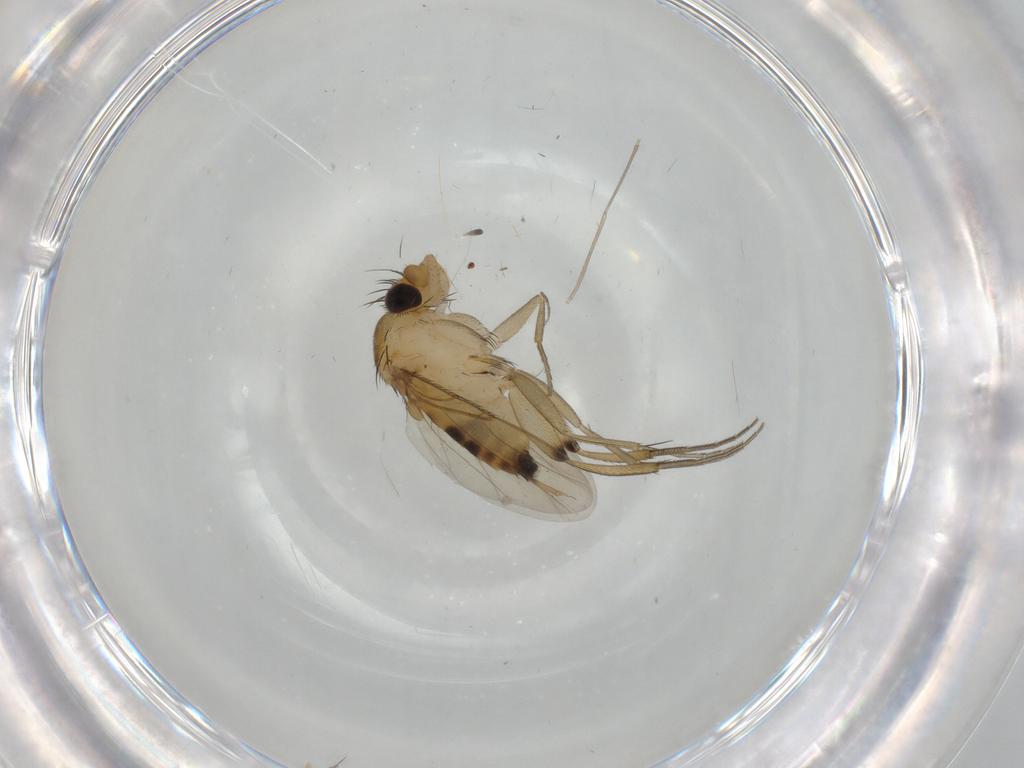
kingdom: Animalia
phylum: Arthropoda
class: Insecta
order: Diptera
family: Phoridae
